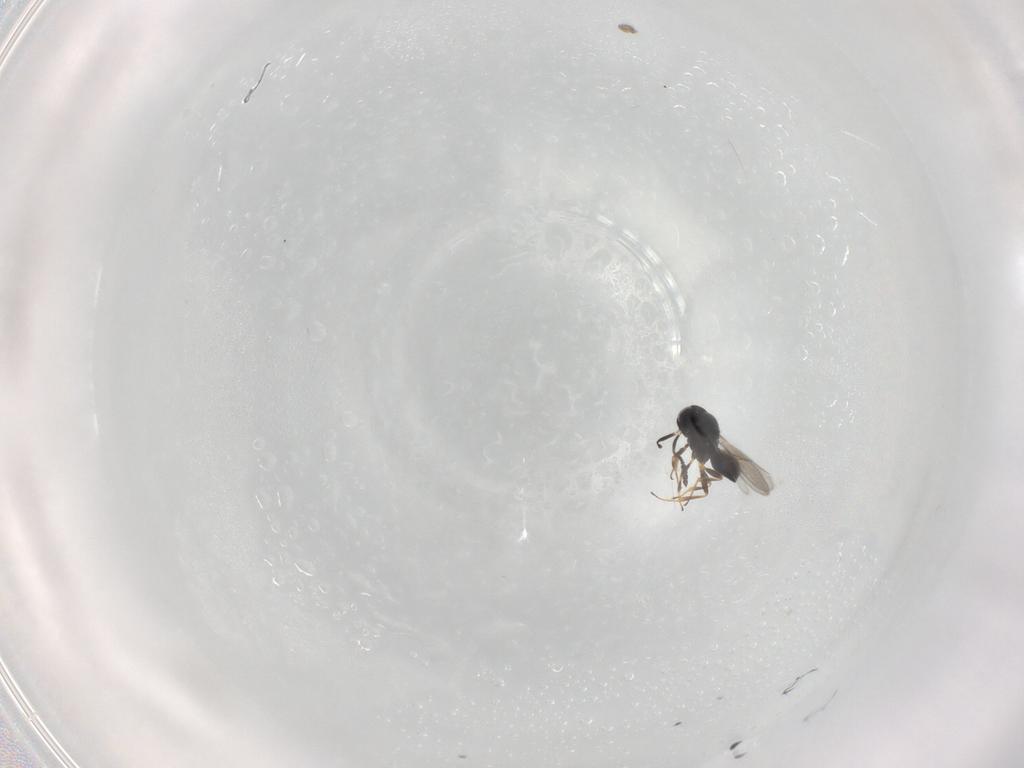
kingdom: Animalia
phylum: Arthropoda
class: Insecta
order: Hymenoptera
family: Scelionidae
